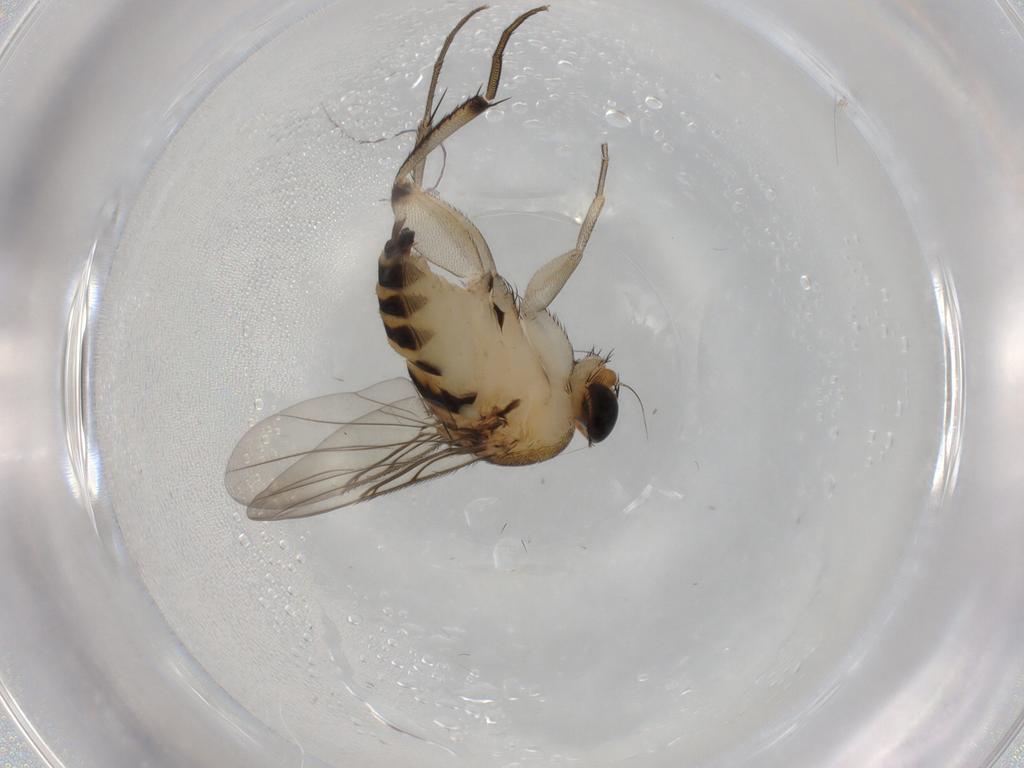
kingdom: Animalia
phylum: Arthropoda
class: Insecta
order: Diptera
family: Phoridae
